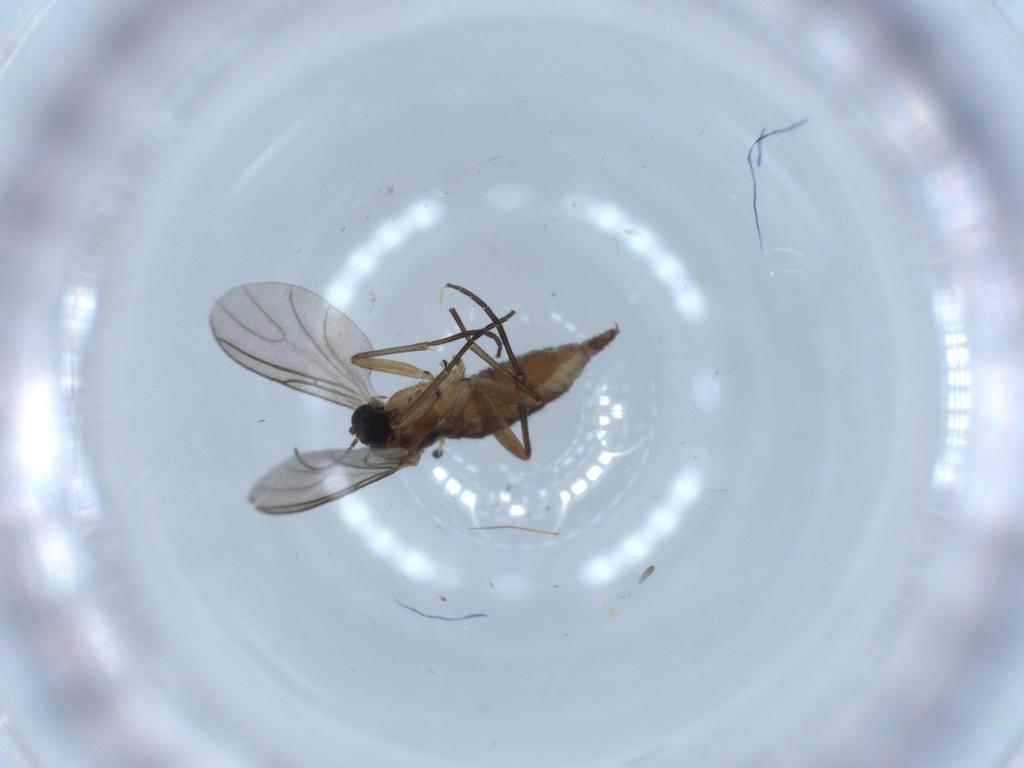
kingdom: Animalia
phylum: Arthropoda
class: Insecta
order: Diptera
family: Sciaridae
